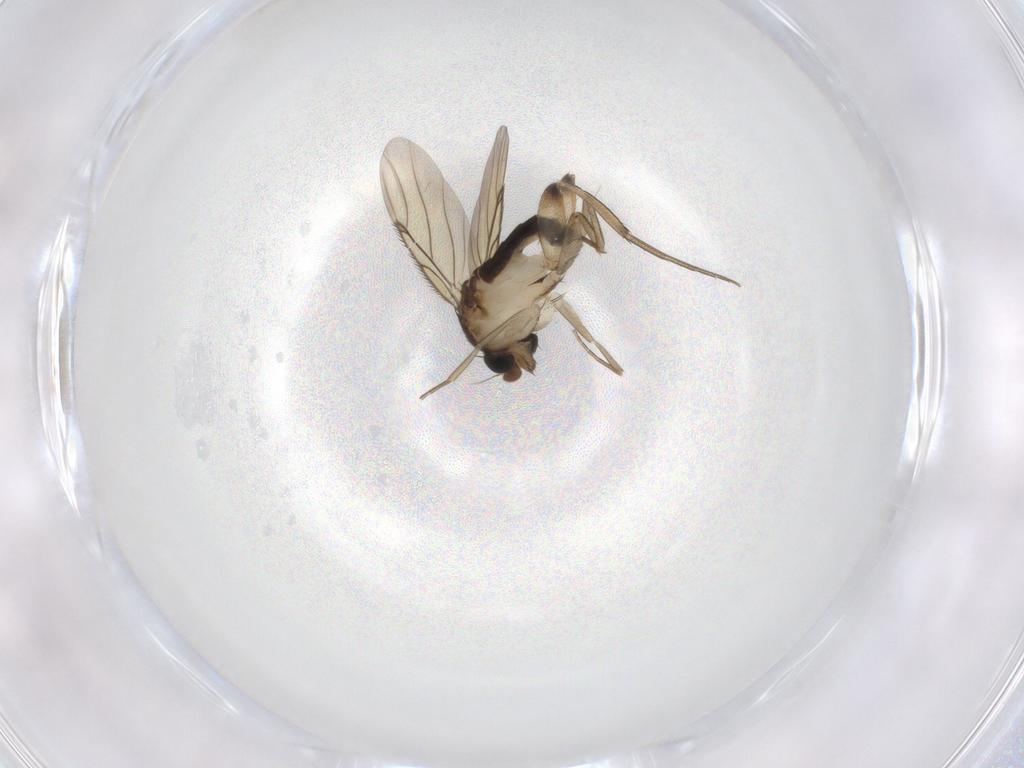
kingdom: Animalia
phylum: Arthropoda
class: Insecta
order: Diptera
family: Phoridae
